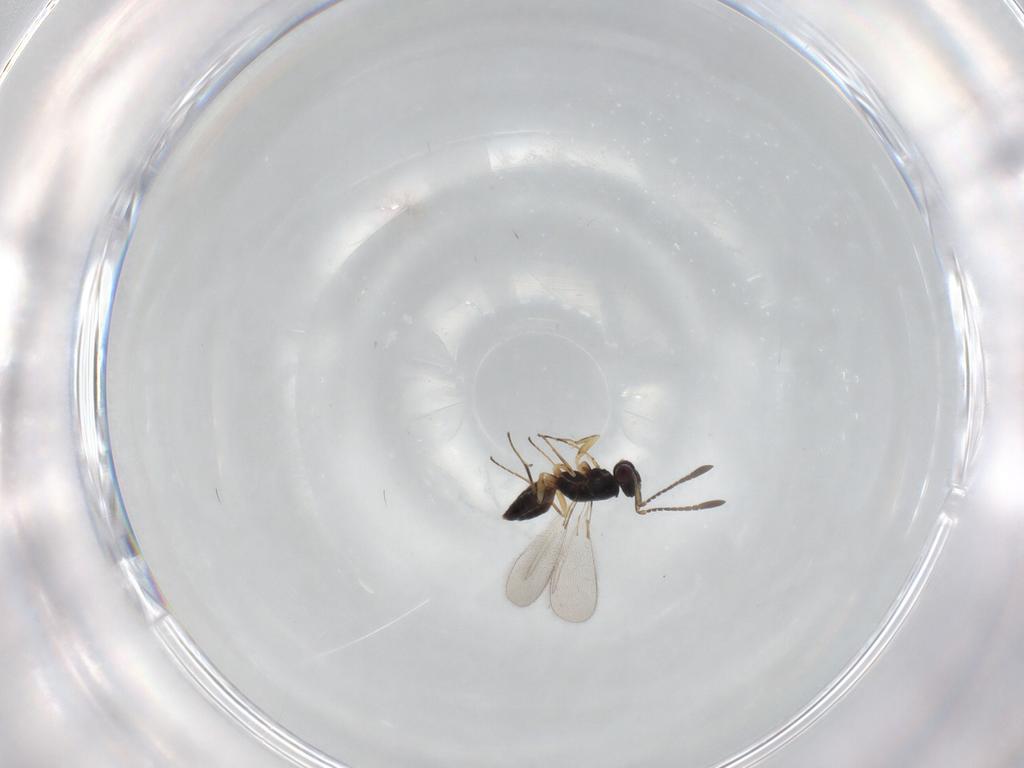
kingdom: Animalia
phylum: Arthropoda
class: Insecta
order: Hymenoptera
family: Mymaridae
